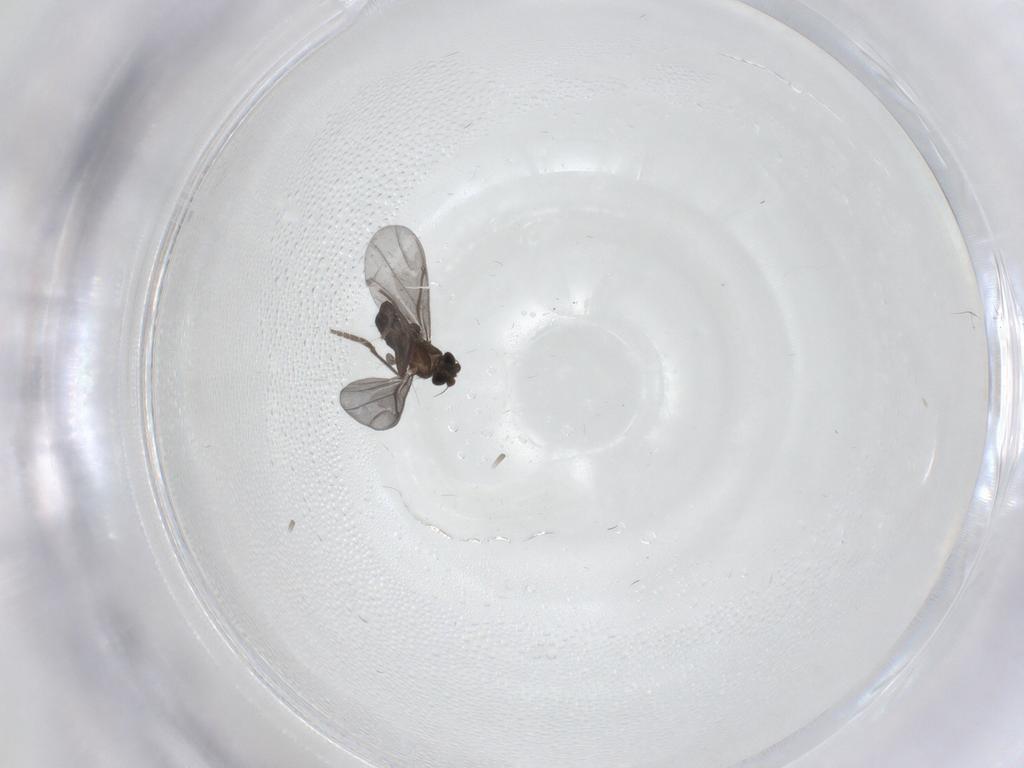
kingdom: Animalia
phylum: Arthropoda
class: Insecta
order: Diptera
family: Phoridae
